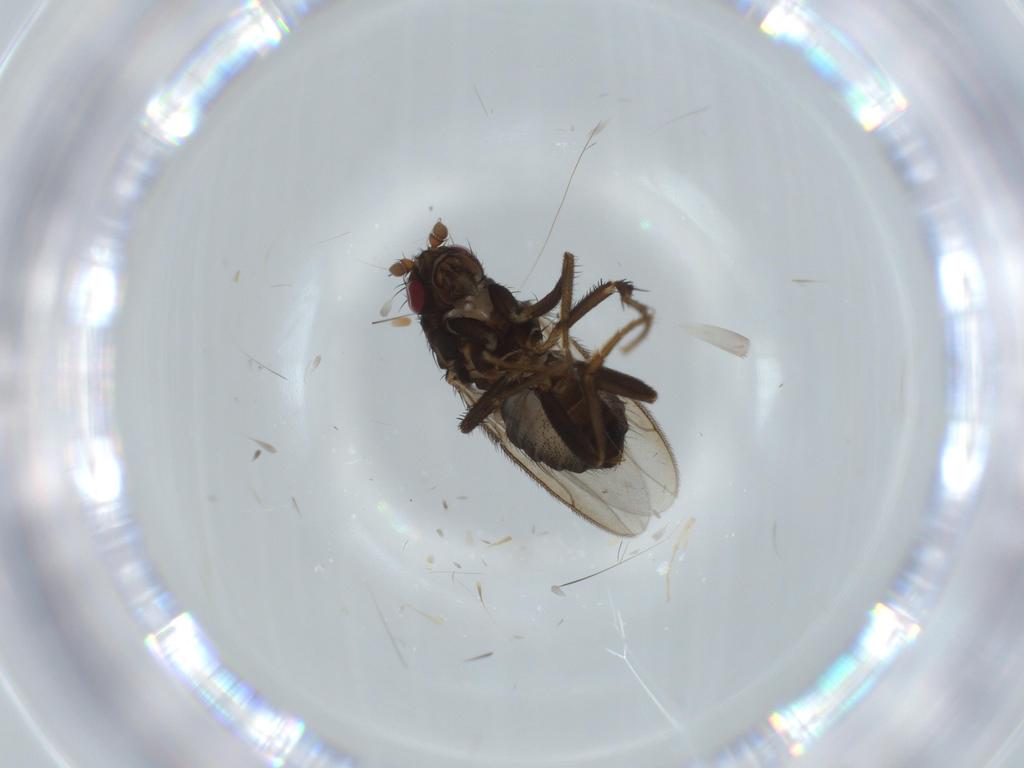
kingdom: Animalia
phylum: Arthropoda
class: Insecta
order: Diptera
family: Sphaeroceridae
